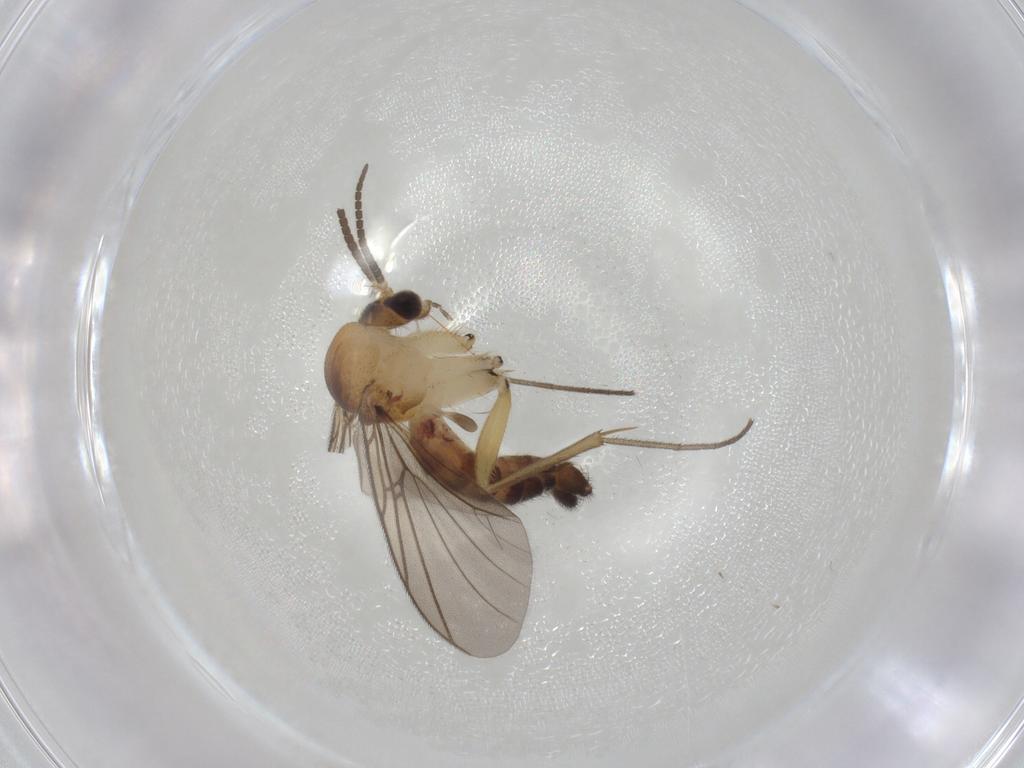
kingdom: Animalia
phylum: Arthropoda
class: Insecta
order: Diptera
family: Mycetophilidae
